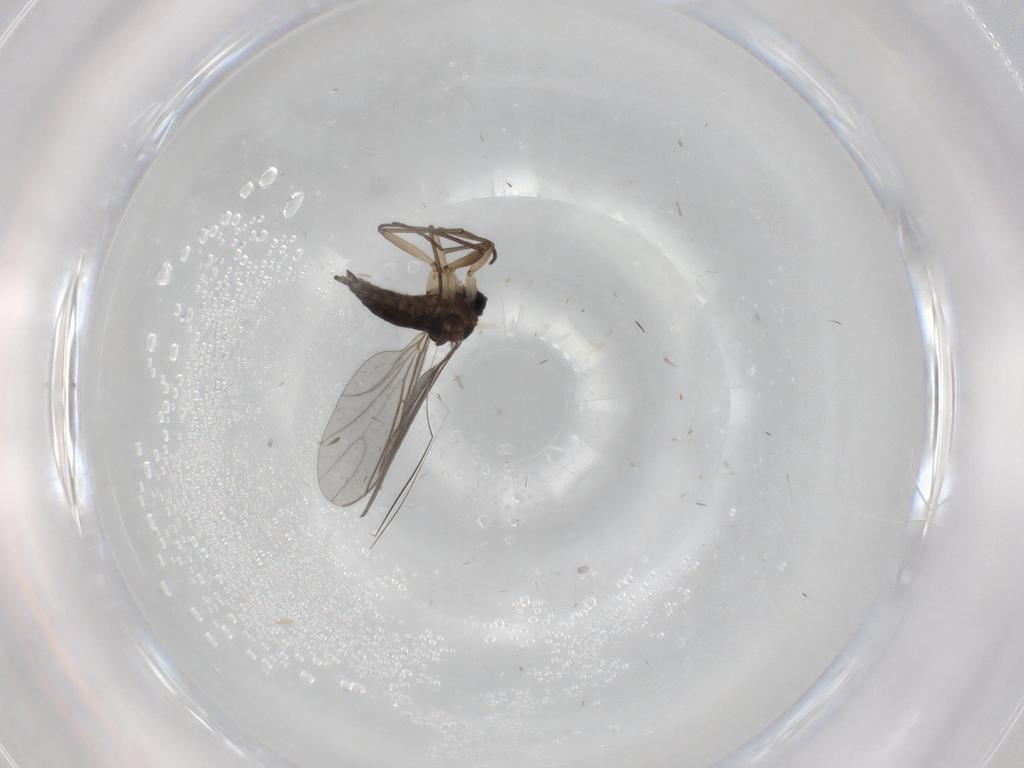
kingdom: Animalia
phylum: Arthropoda
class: Insecta
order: Diptera
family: Sciaridae
